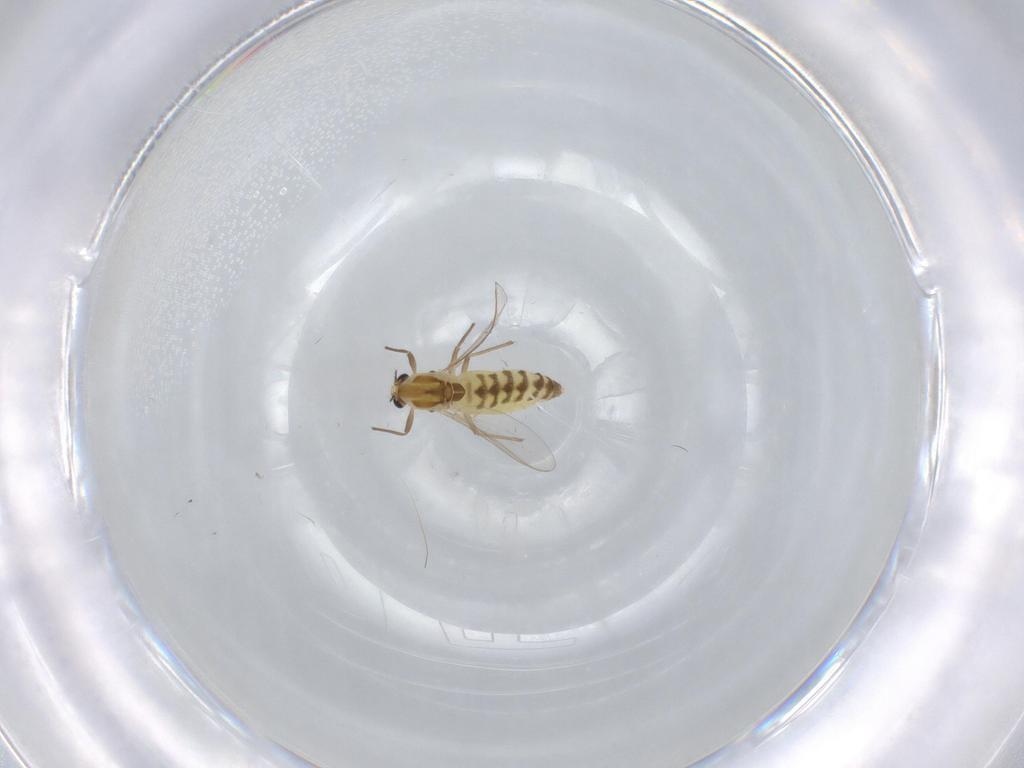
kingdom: Animalia
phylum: Arthropoda
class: Insecta
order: Diptera
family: Chironomidae
